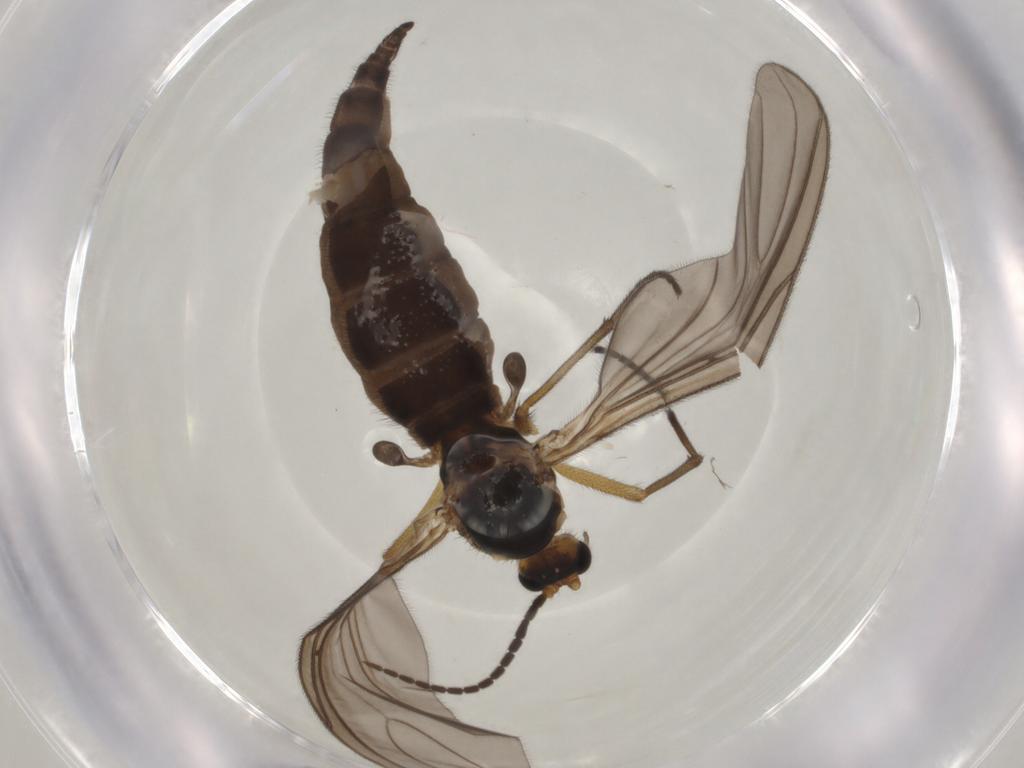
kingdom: Animalia
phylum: Arthropoda
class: Insecta
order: Diptera
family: Sciaridae
